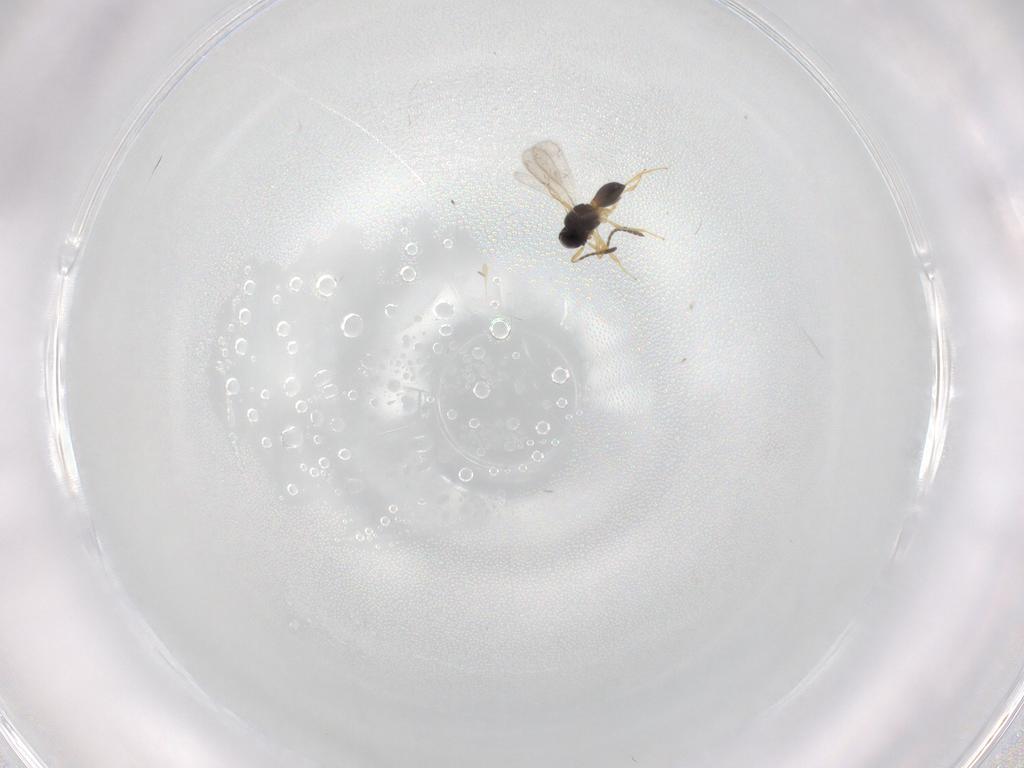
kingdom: Animalia
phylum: Arthropoda
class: Insecta
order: Hymenoptera
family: Scelionidae
